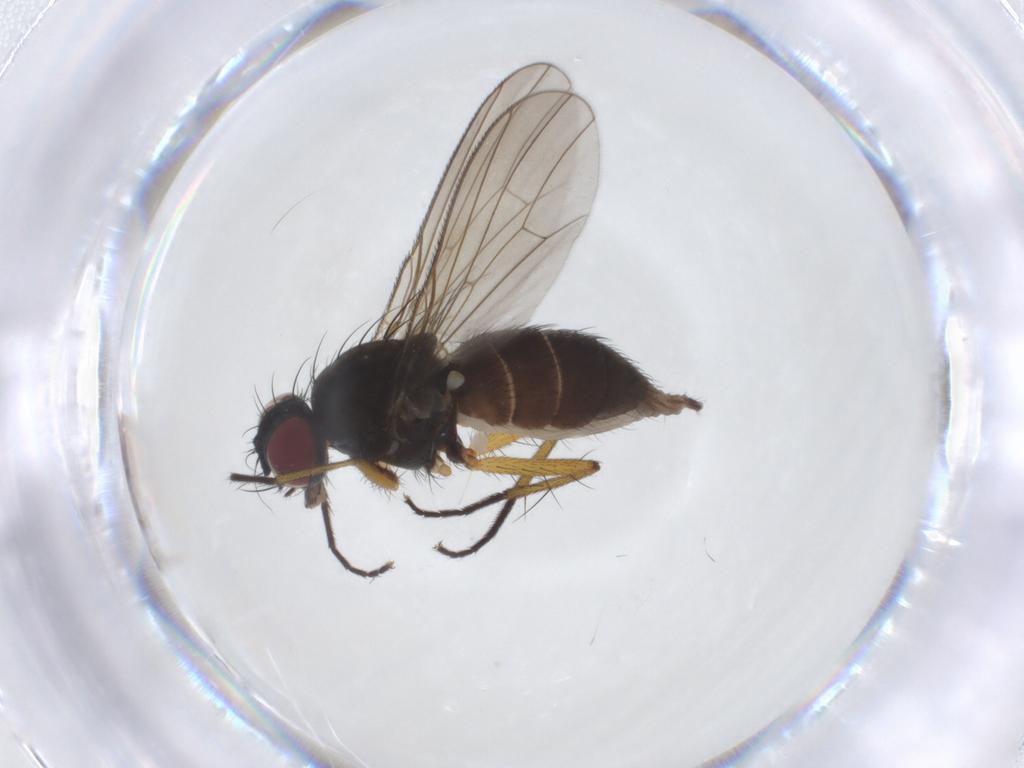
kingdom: Animalia
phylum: Arthropoda
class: Insecta
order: Diptera
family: Muscidae
